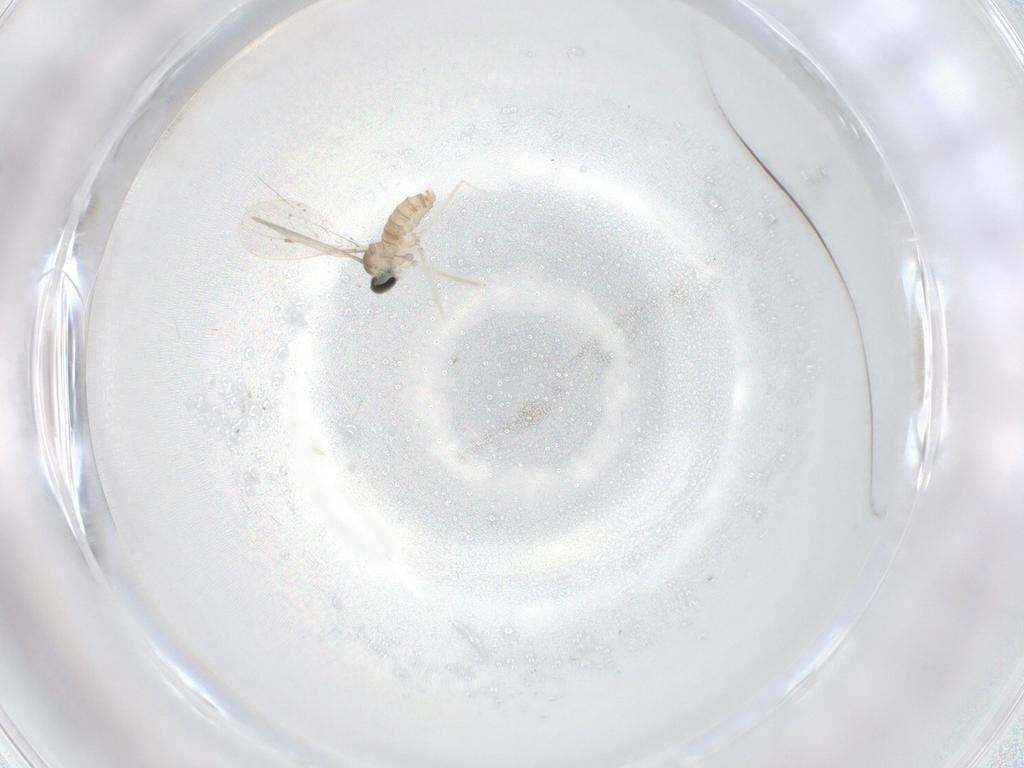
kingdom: Animalia
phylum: Arthropoda
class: Insecta
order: Diptera
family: Cecidomyiidae
